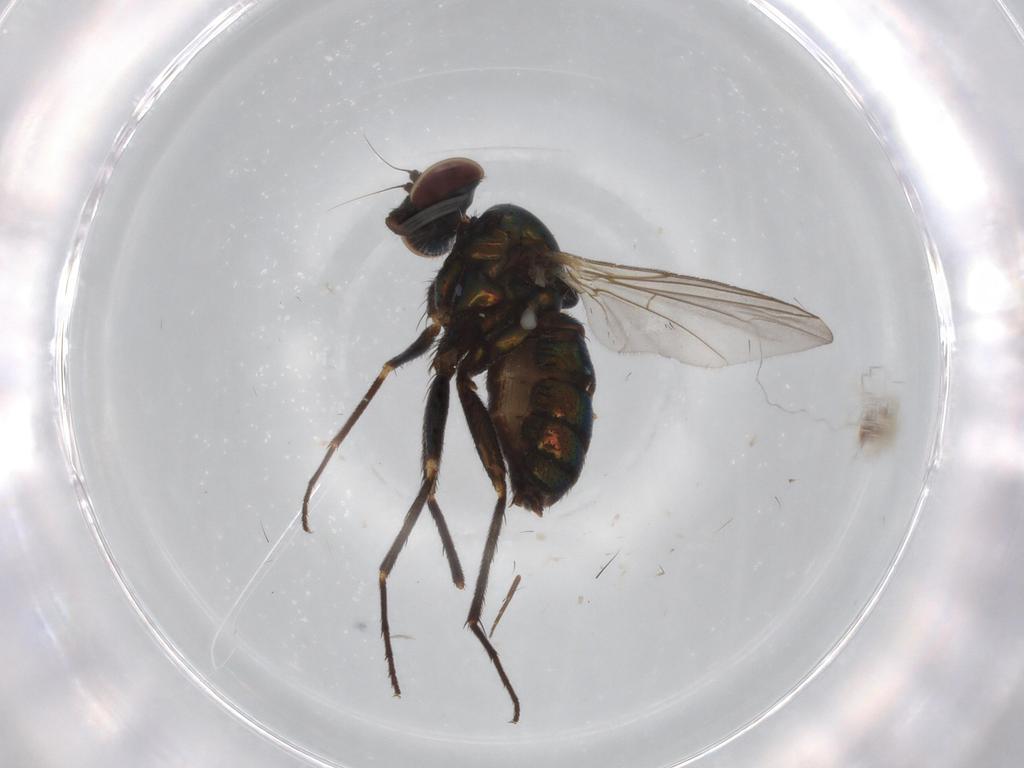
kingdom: Animalia
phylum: Arthropoda
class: Insecta
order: Diptera
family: Dolichopodidae
